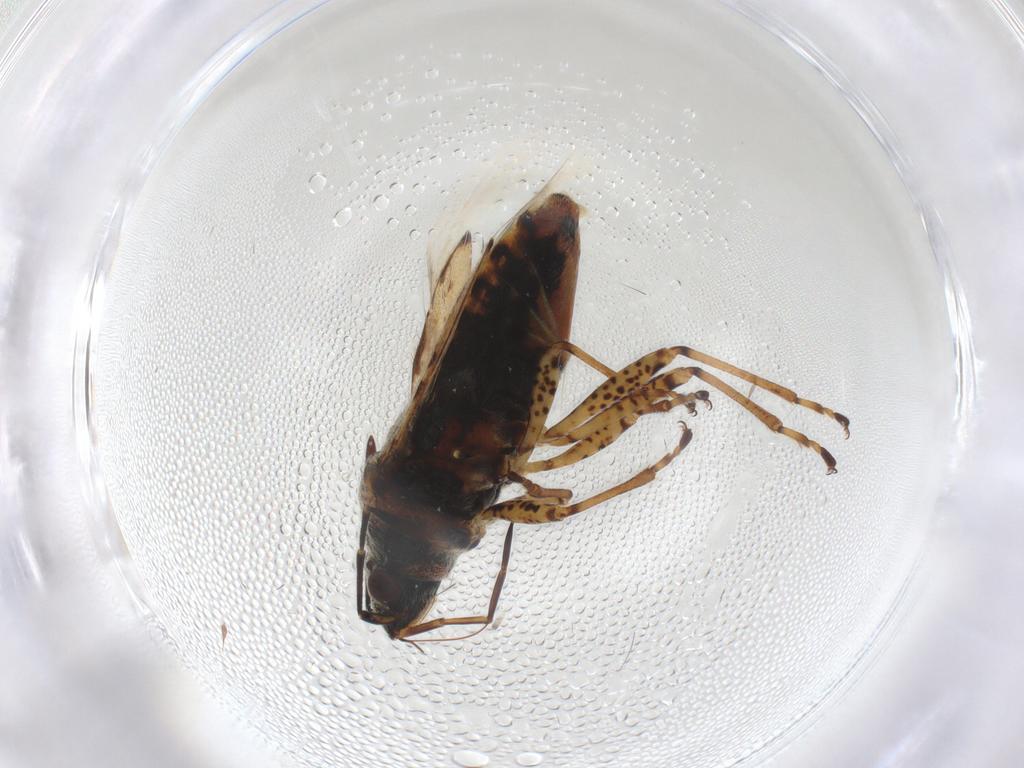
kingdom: Animalia
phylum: Arthropoda
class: Insecta
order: Hemiptera
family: Lygaeidae
